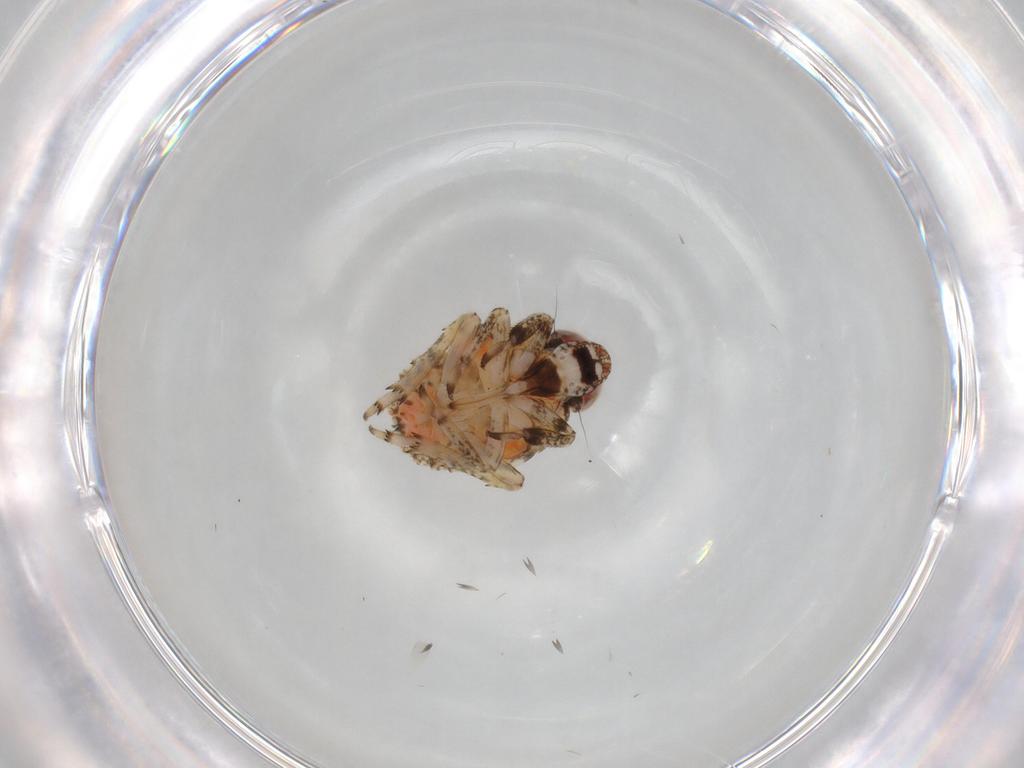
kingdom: Animalia
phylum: Arthropoda
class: Insecta
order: Hemiptera
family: Issidae
